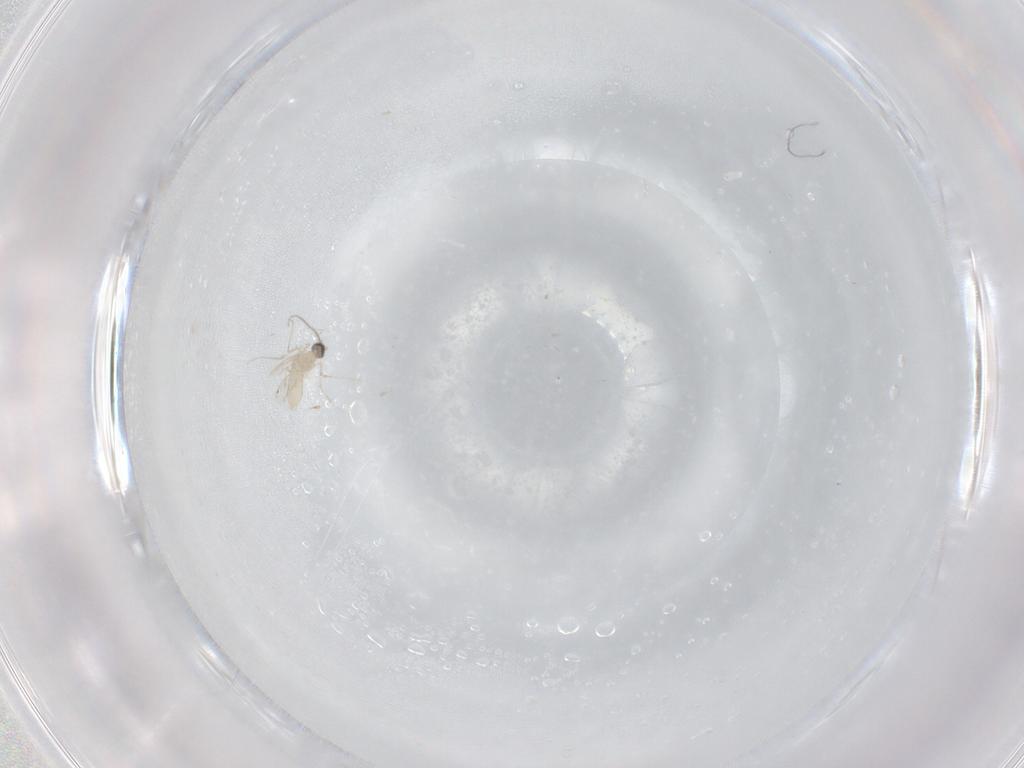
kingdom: Animalia
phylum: Arthropoda
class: Insecta
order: Diptera
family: Cecidomyiidae
